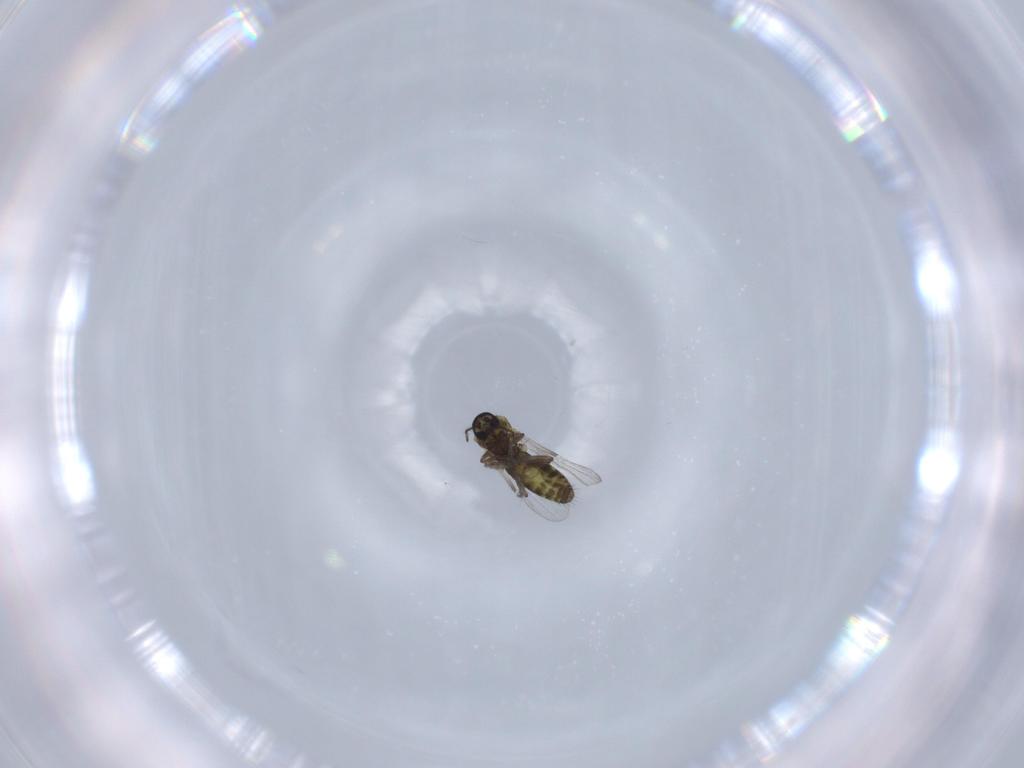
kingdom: Animalia
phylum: Arthropoda
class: Insecta
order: Diptera
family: Ceratopogonidae
